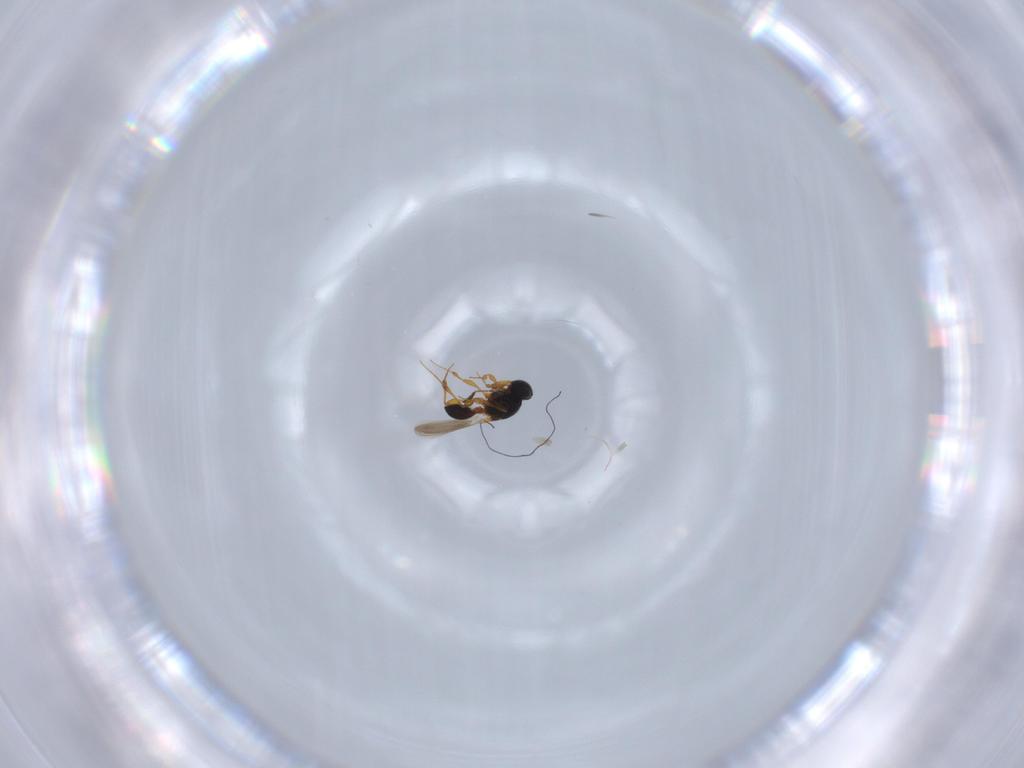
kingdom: Animalia
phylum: Arthropoda
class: Insecta
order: Hymenoptera
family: Platygastridae
